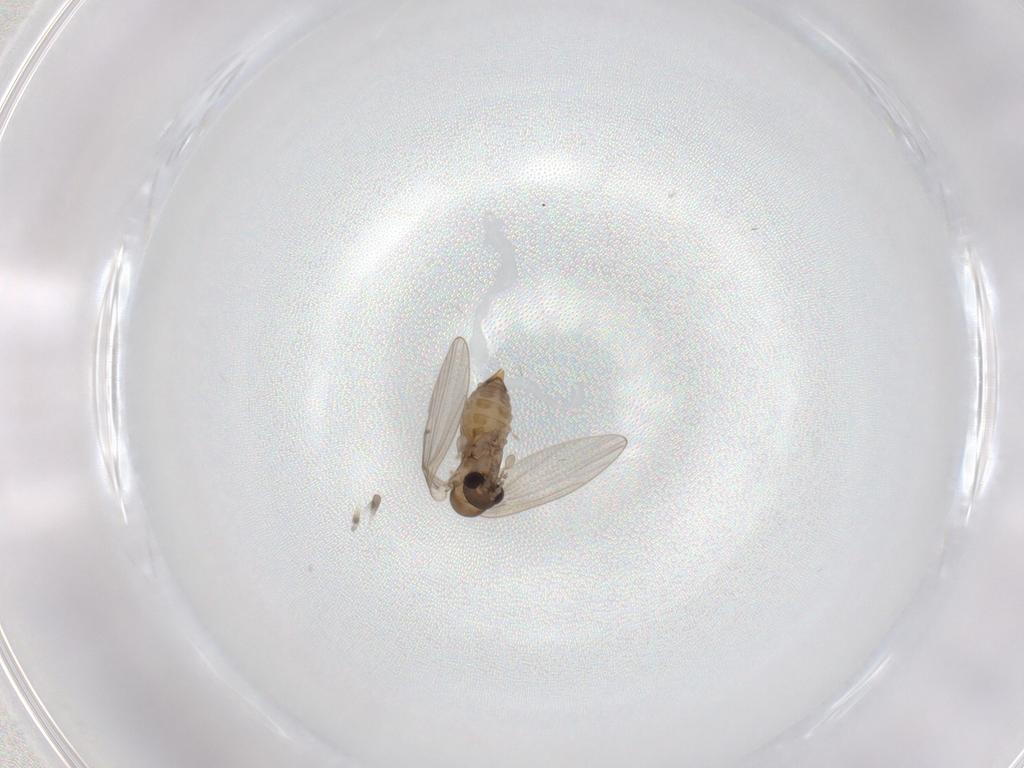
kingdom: Animalia
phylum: Arthropoda
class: Insecta
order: Diptera
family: Psychodidae
